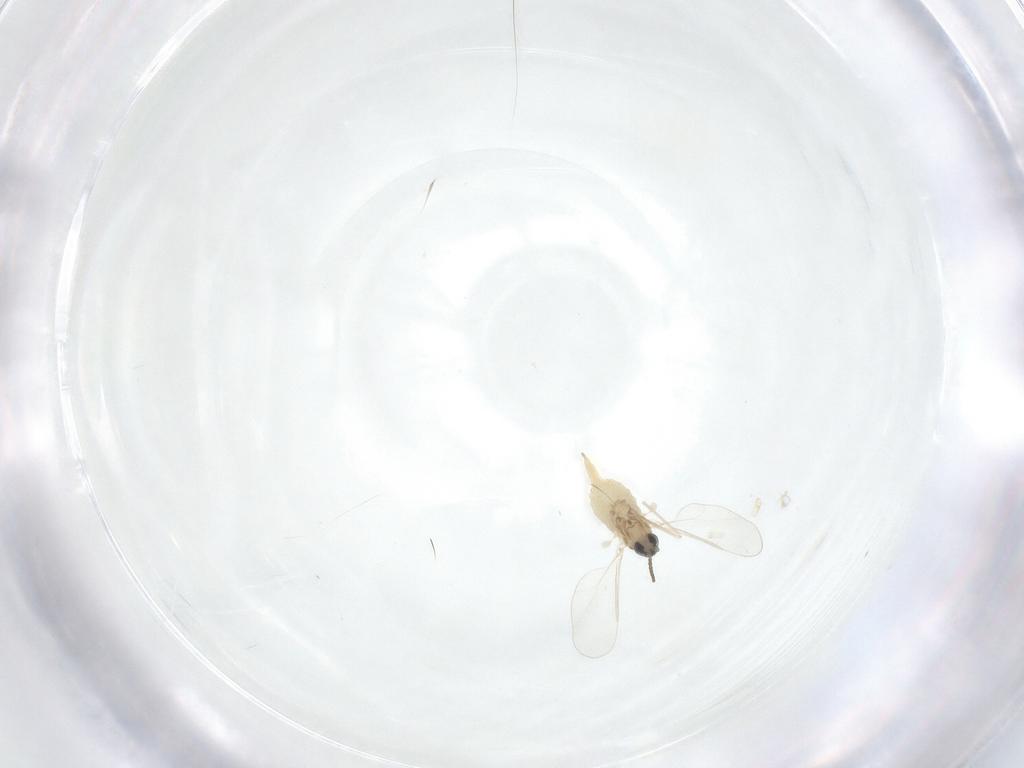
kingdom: Animalia
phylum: Arthropoda
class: Insecta
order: Diptera
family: Cecidomyiidae
